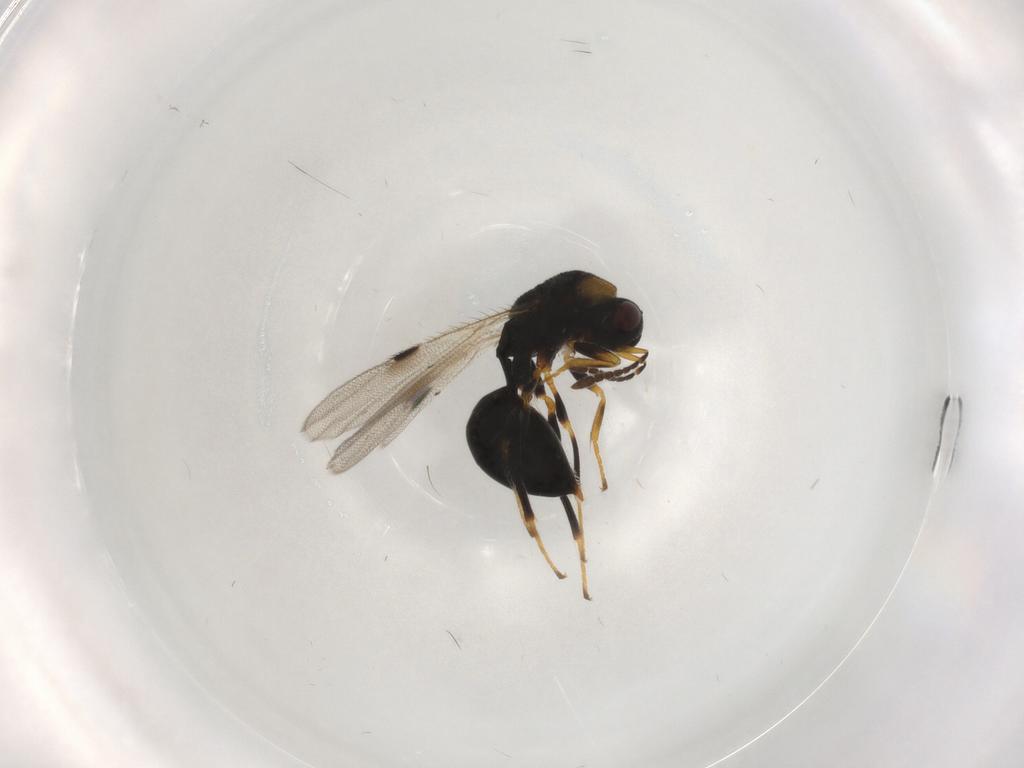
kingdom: Animalia
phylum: Arthropoda
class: Insecta
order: Hymenoptera
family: Eurytomidae
